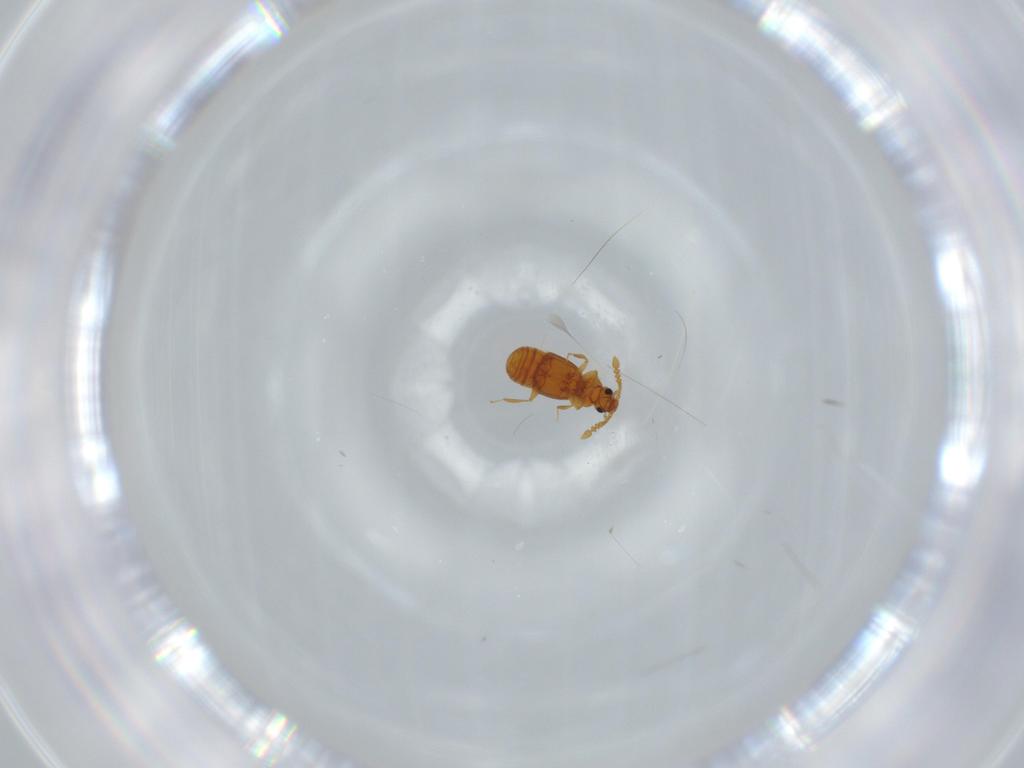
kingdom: Animalia
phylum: Arthropoda
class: Insecta
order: Coleoptera
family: Staphylinidae
